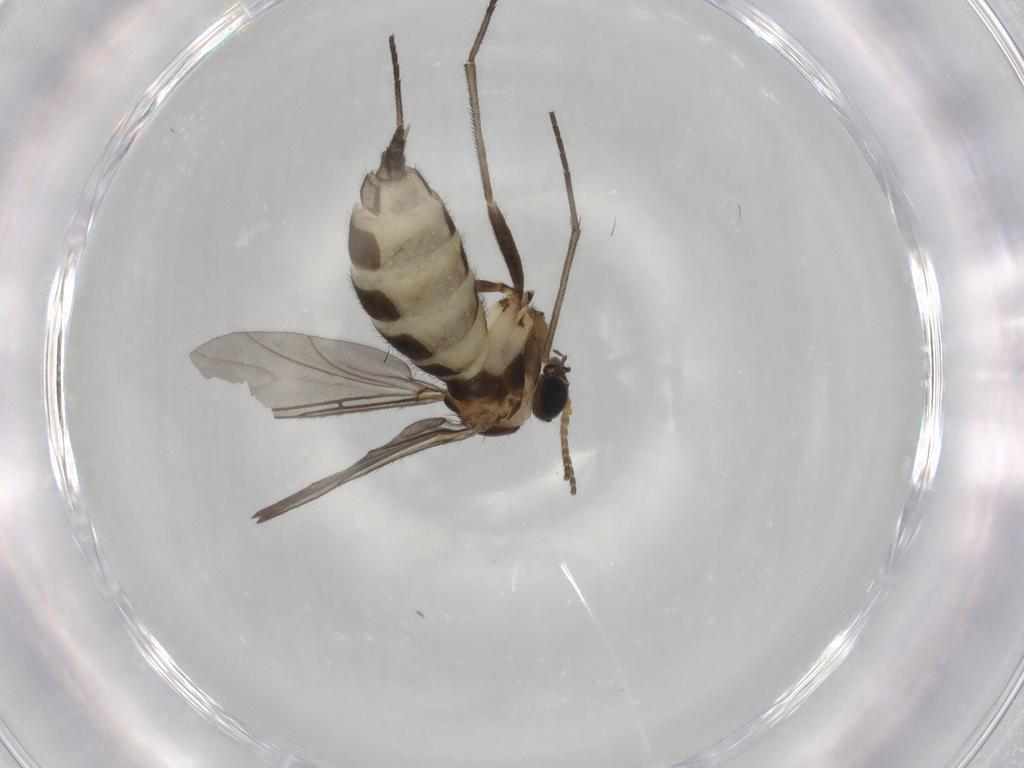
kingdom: Animalia
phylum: Arthropoda
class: Insecta
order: Diptera
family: Sciaridae
